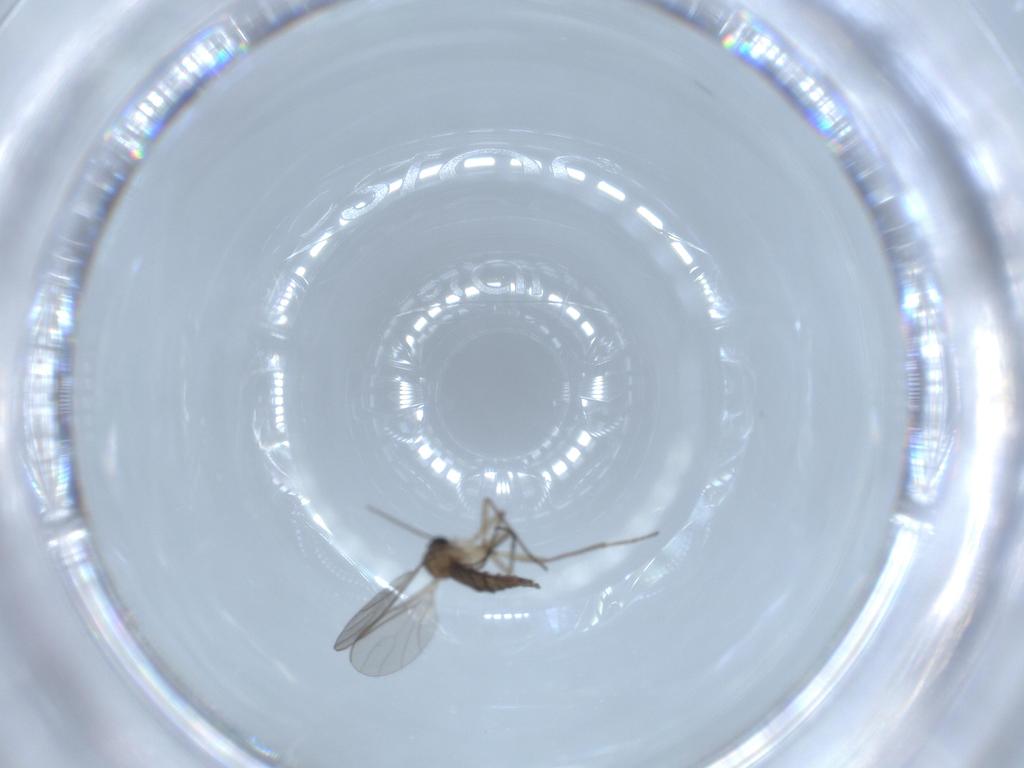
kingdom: Animalia
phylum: Arthropoda
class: Insecta
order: Diptera
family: Sciaridae
